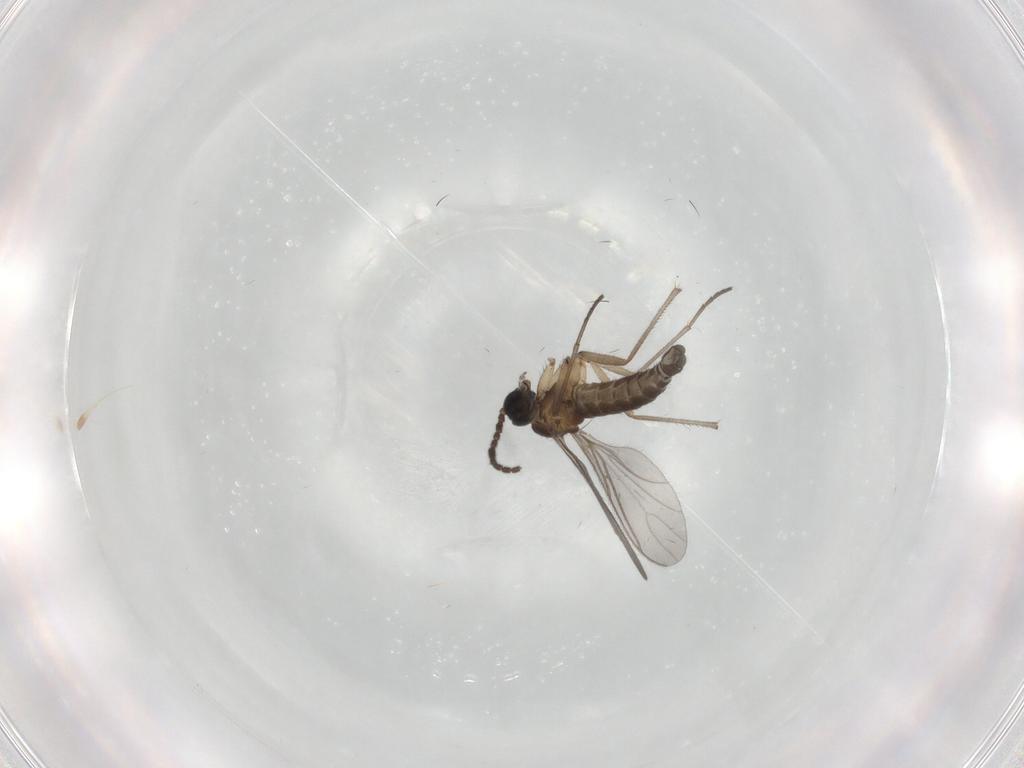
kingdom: Animalia
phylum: Arthropoda
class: Insecta
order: Diptera
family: Sciaridae
